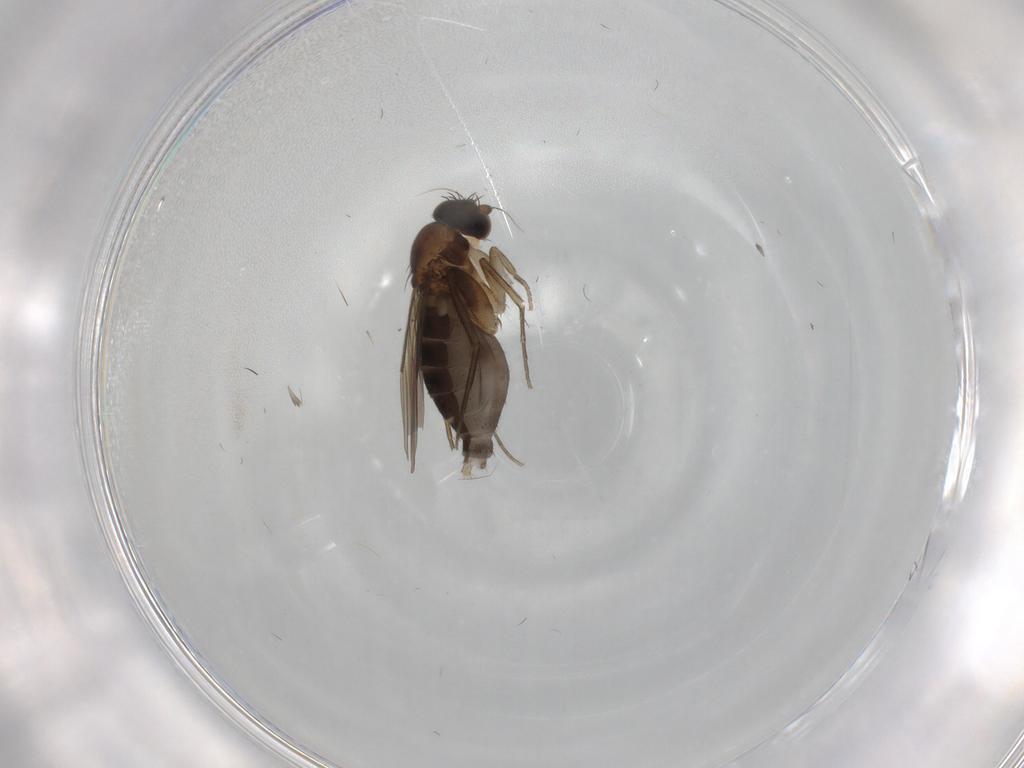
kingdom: Animalia
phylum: Arthropoda
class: Insecta
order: Diptera
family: Phoridae
